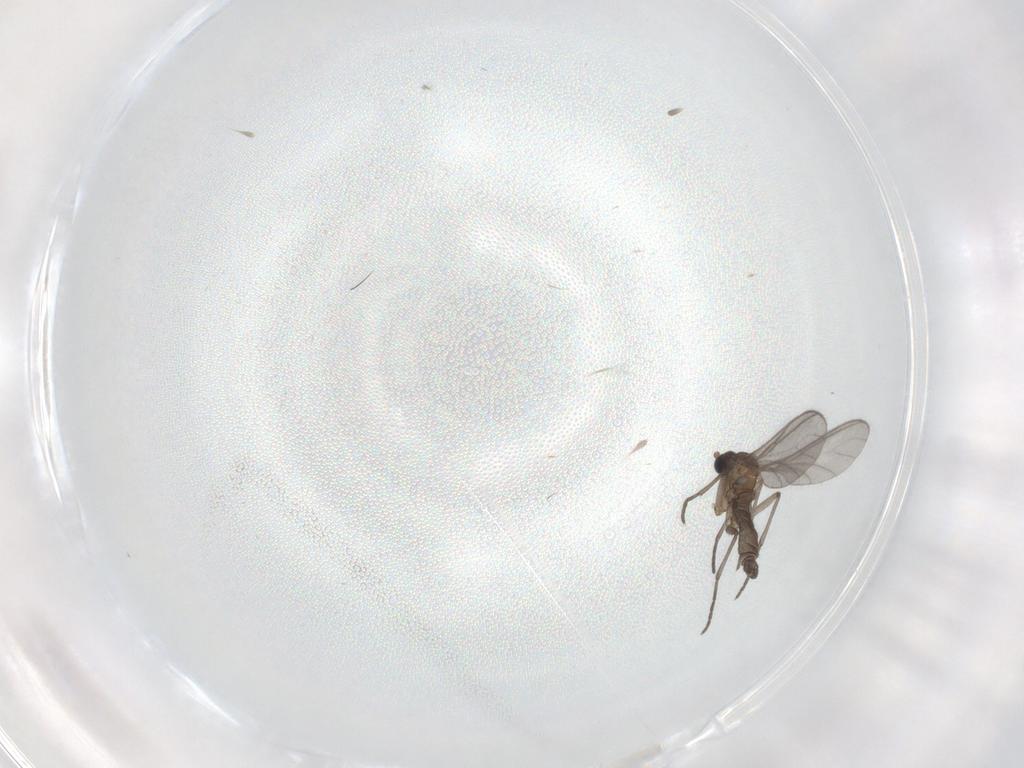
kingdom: Animalia
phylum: Arthropoda
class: Insecta
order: Diptera
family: Sciaridae
